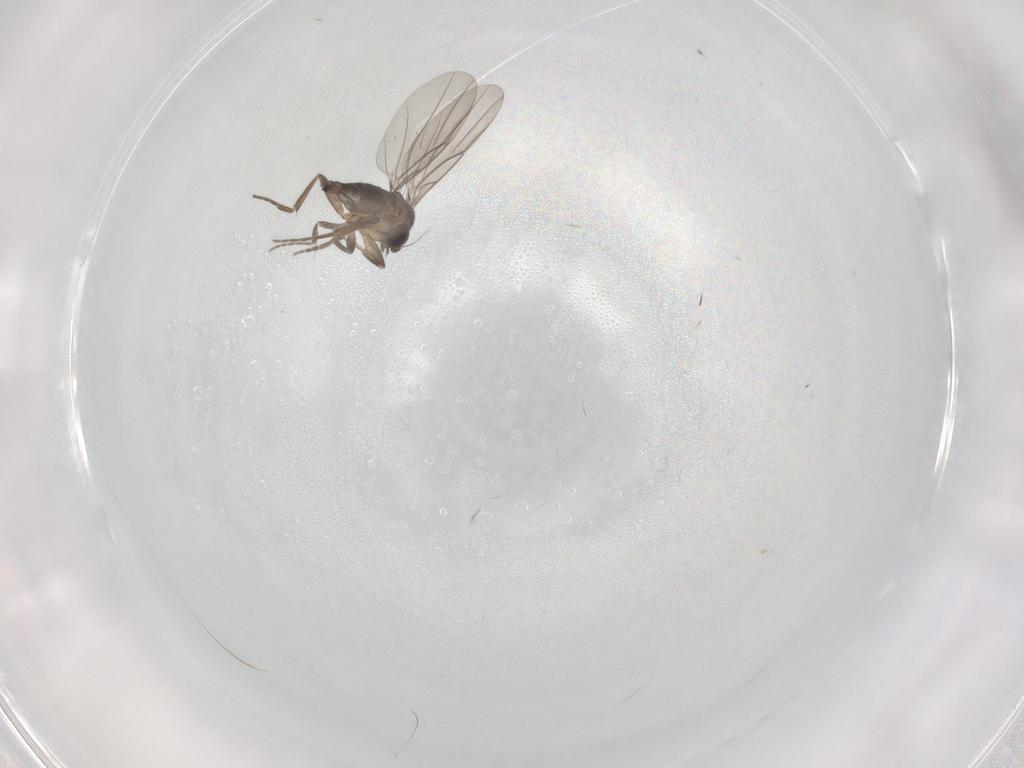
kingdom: Animalia
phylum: Arthropoda
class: Insecta
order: Diptera
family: Cecidomyiidae
